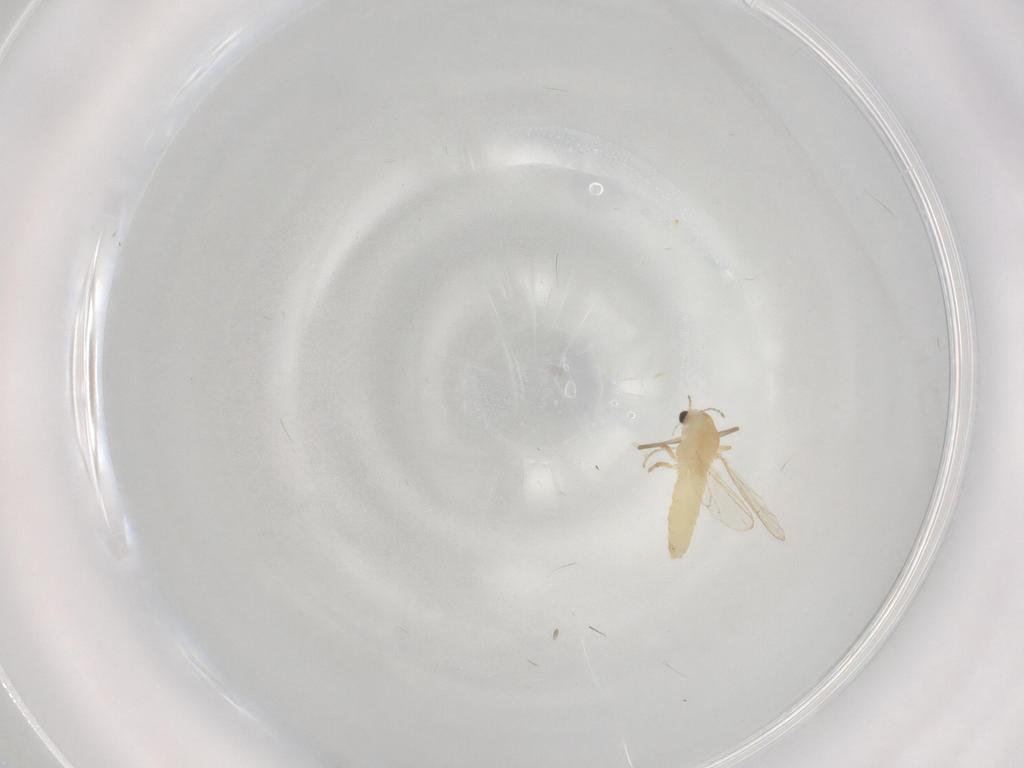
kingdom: Animalia
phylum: Arthropoda
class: Insecta
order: Diptera
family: Chironomidae
